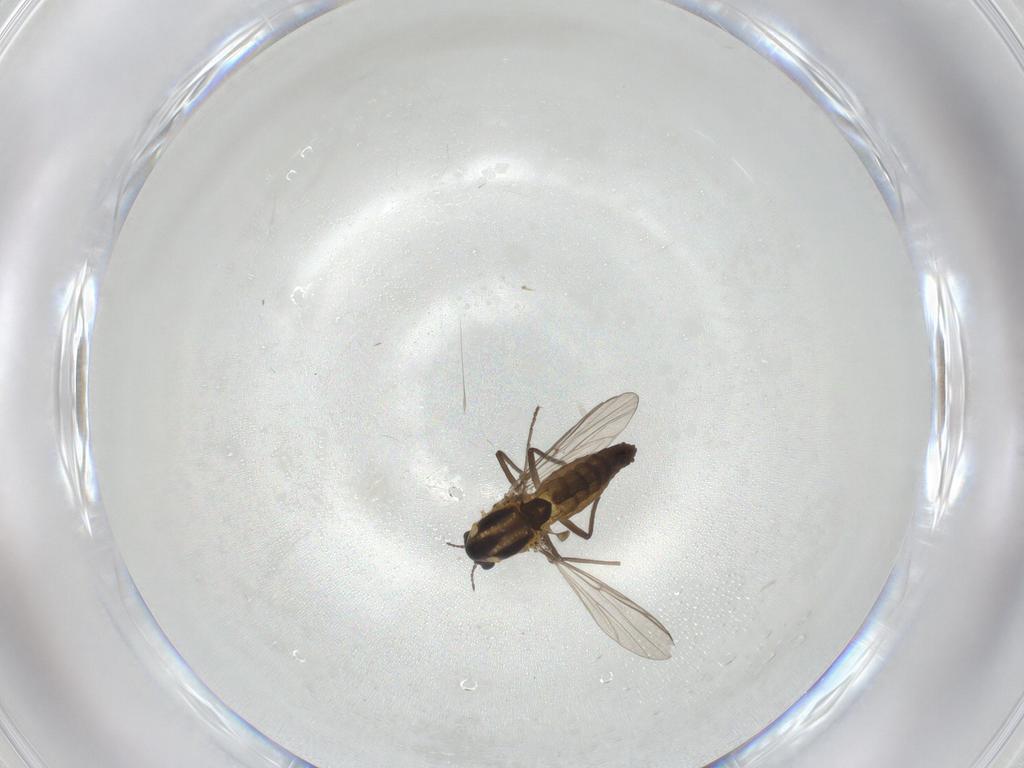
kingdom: Animalia
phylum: Arthropoda
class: Insecta
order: Diptera
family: Chironomidae
